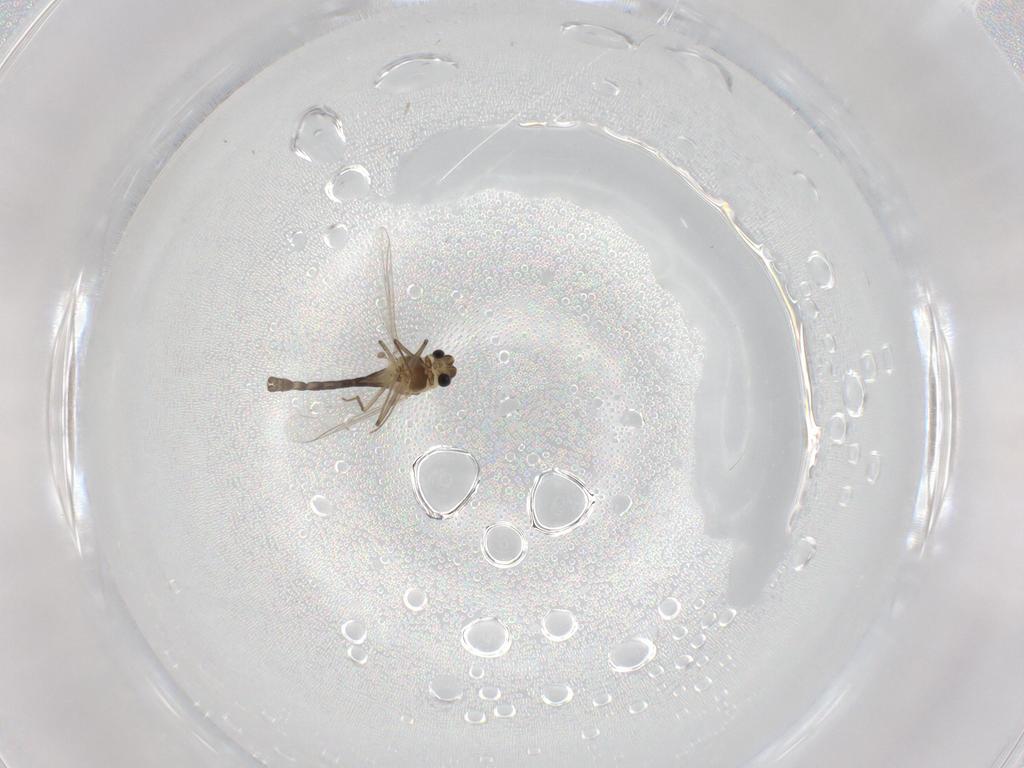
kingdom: Animalia
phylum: Arthropoda
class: Insecta
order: Diptera
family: Chironomidae
